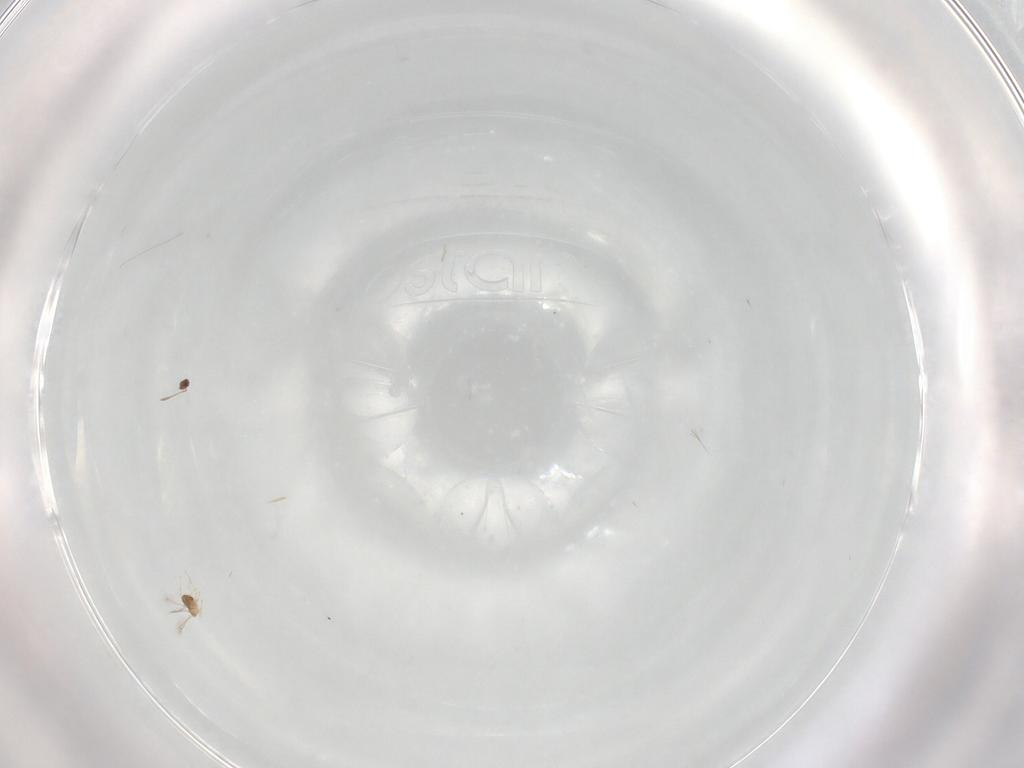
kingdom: Animalia
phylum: Arthropoda
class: Insecta
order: Hymenoptera
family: Mymaridae
